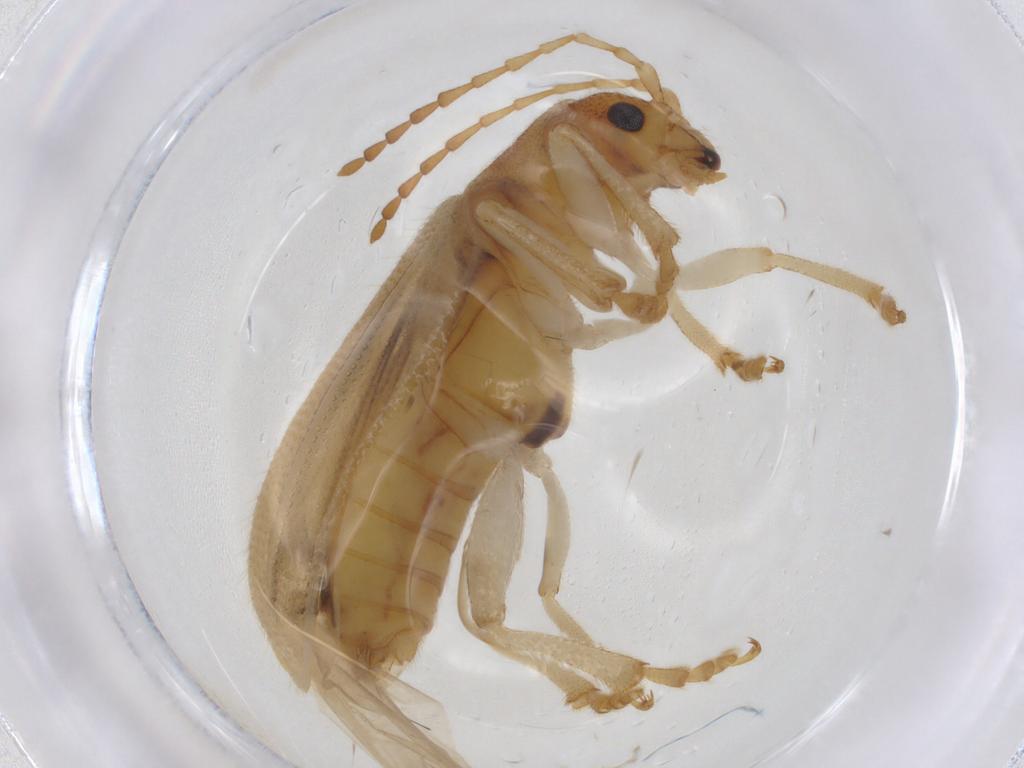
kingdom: Animalia
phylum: Arthropoda
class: Insecta
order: Coleoptera
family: Chrysomelidae
